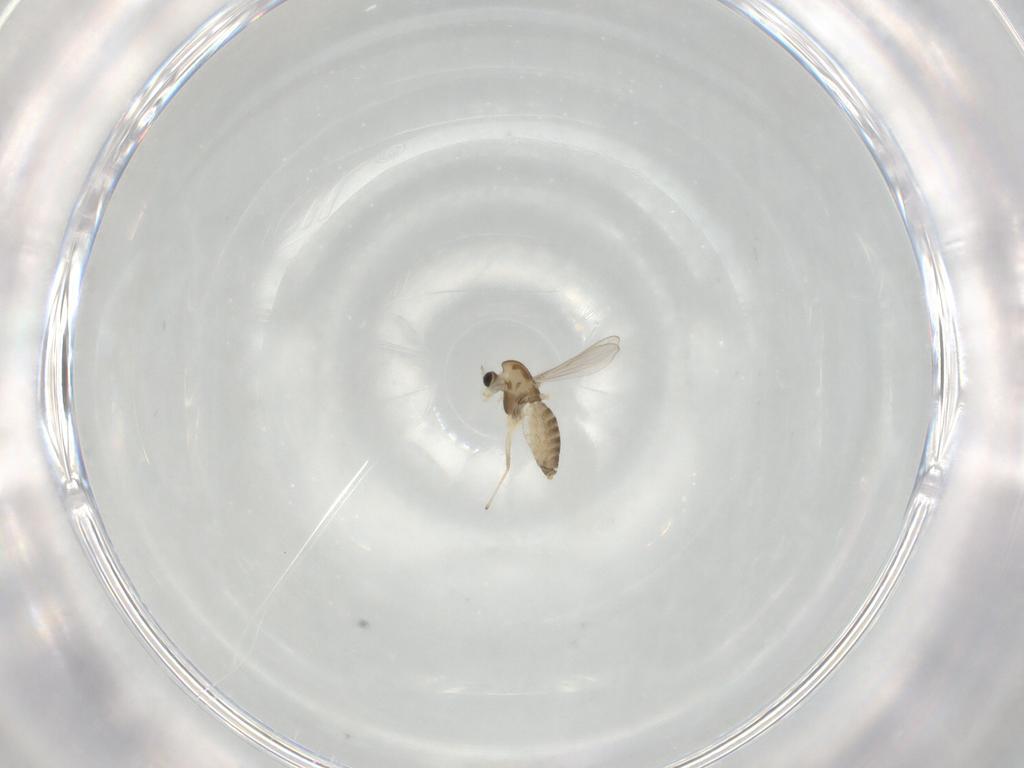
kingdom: Animalia
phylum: Arthropoda
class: Insecta
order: Diptera
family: Chironomidae
